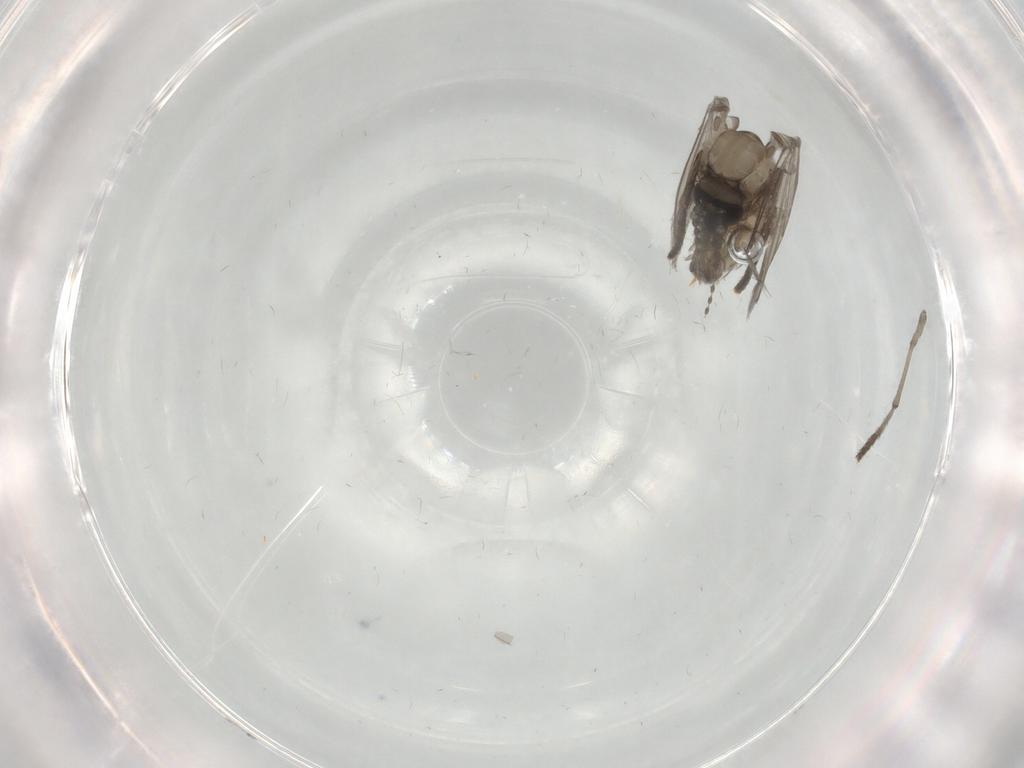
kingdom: Animalia
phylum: Arthropoda
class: Insecta
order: Diptera
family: Psychodidae
